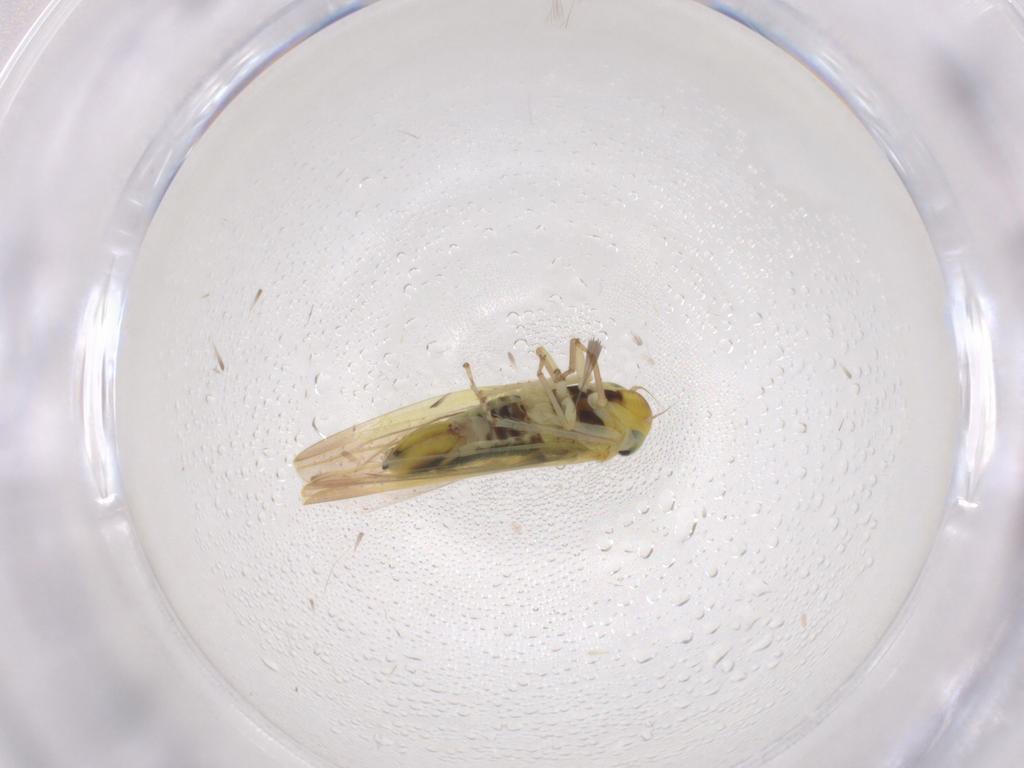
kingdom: Animalia
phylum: Arthropoda
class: Insecta
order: Hemiptera
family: Cicadellidae
